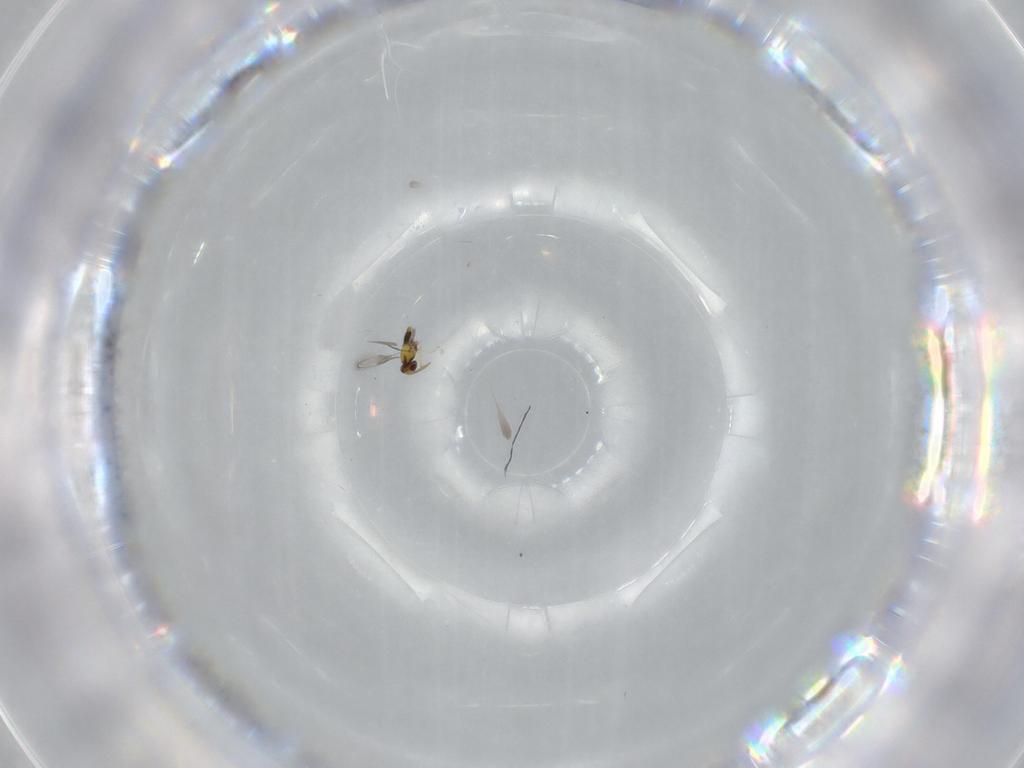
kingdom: Animalia
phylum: Arthropoda
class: Insecta
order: Hymenoptera
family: Aphelinidae
